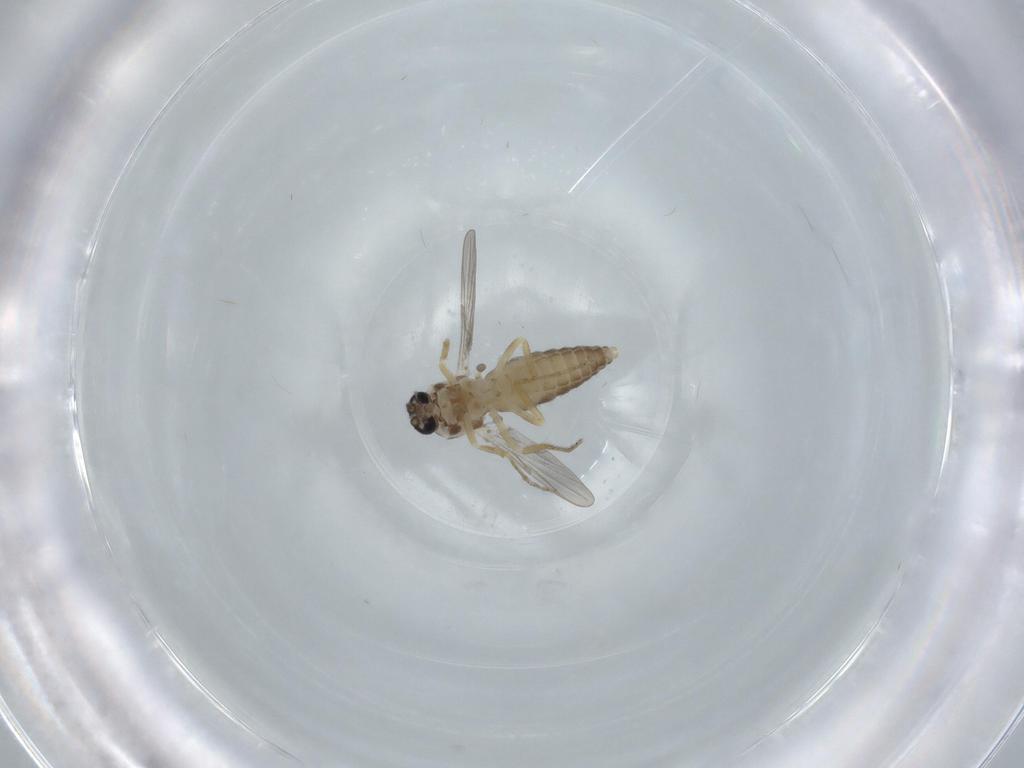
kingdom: Animalia
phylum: Arthropoda
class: Insecta
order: Diptera
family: Ceratopogonidae
